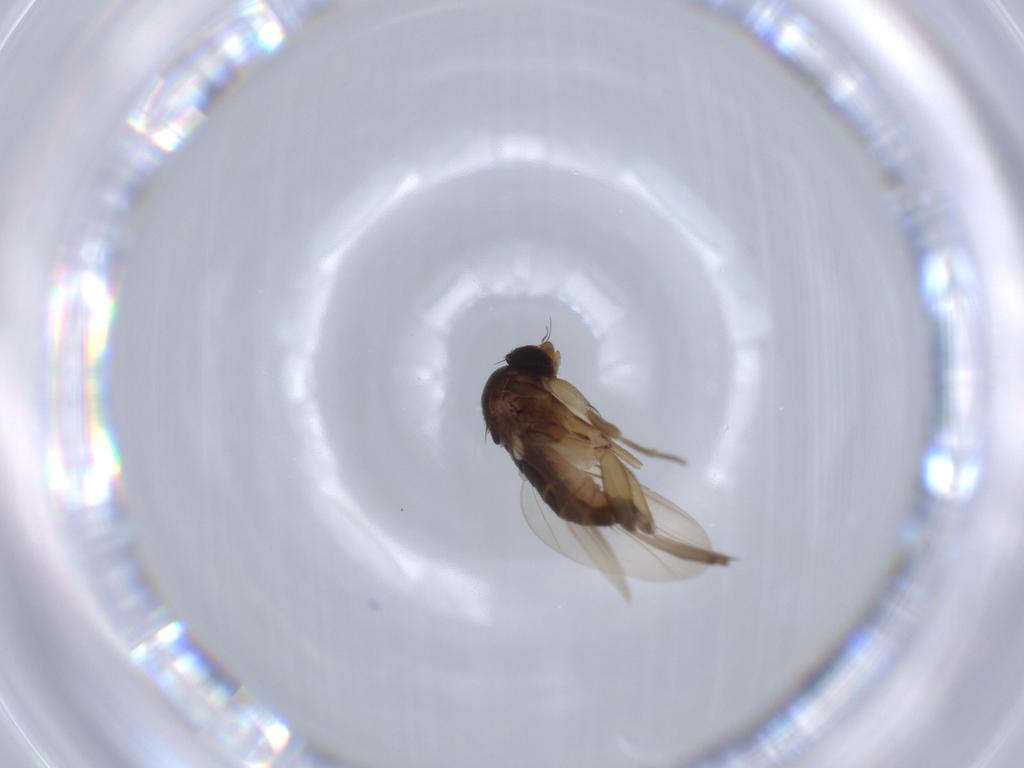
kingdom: Animalia
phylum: Arthropoda
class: Insecta
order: Diptera
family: Phoridae
